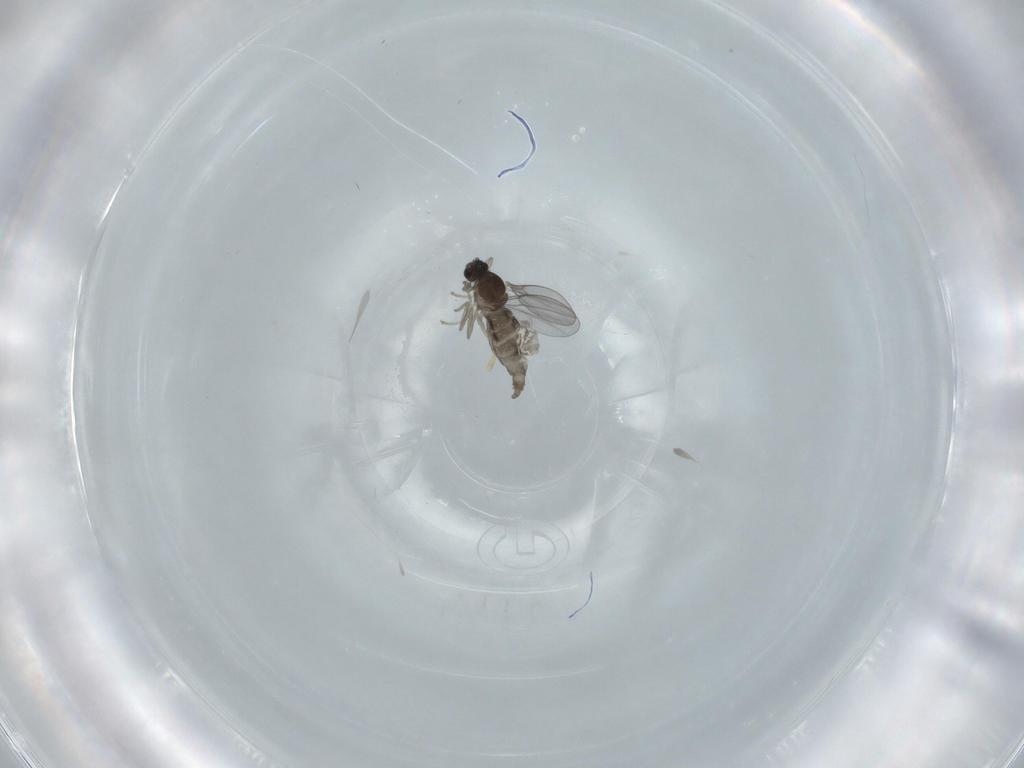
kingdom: Animalia
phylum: Arthropoda
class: Insecta
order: Diptera
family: Cecidomyiidae
